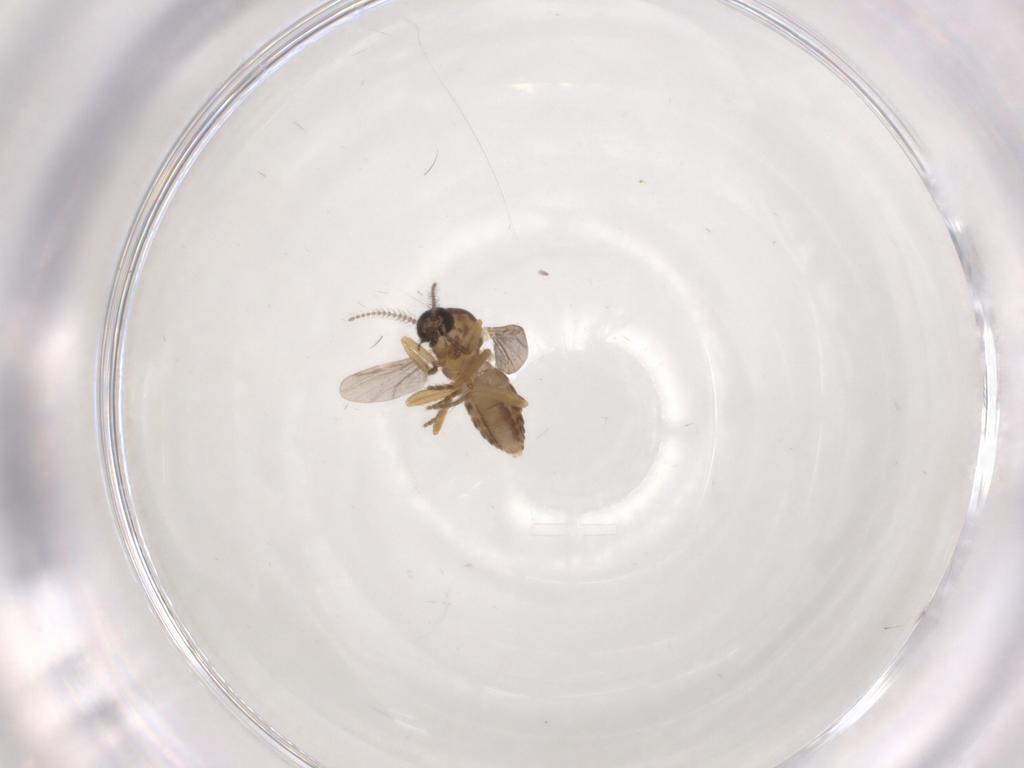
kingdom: Animalia
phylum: Arthropoda
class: Insecta
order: Diptera
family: Ceratopogonidae
